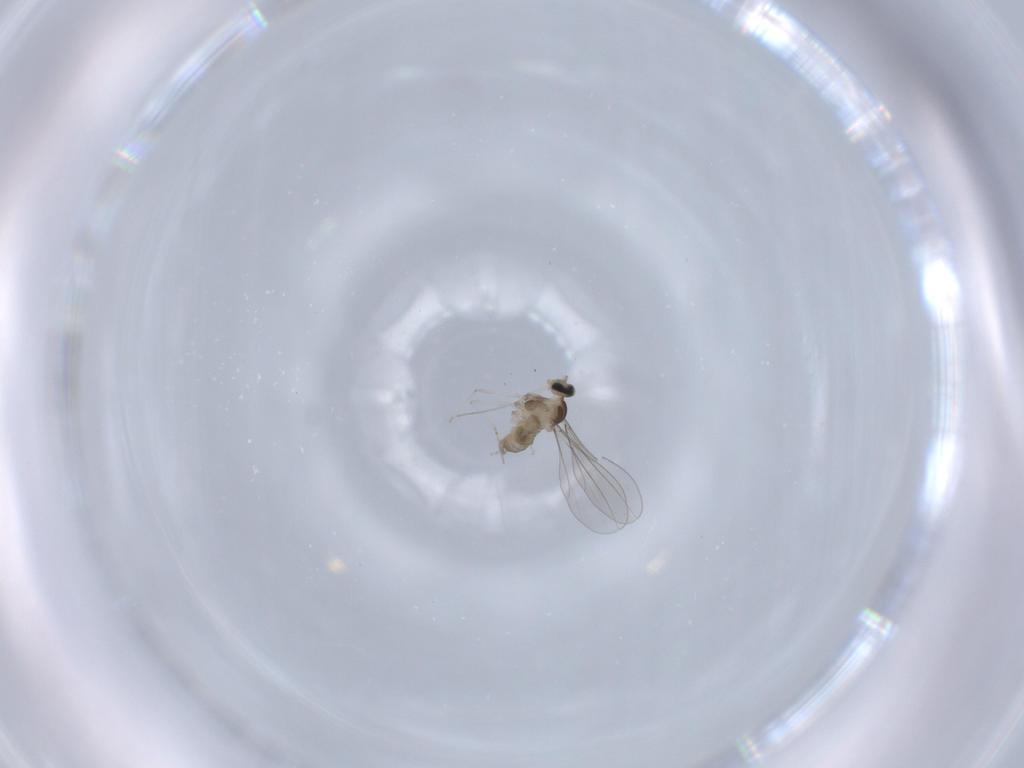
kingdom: Animalia
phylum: Arthropoda
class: Insecta
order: Diptera
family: Cecidomyiidae
